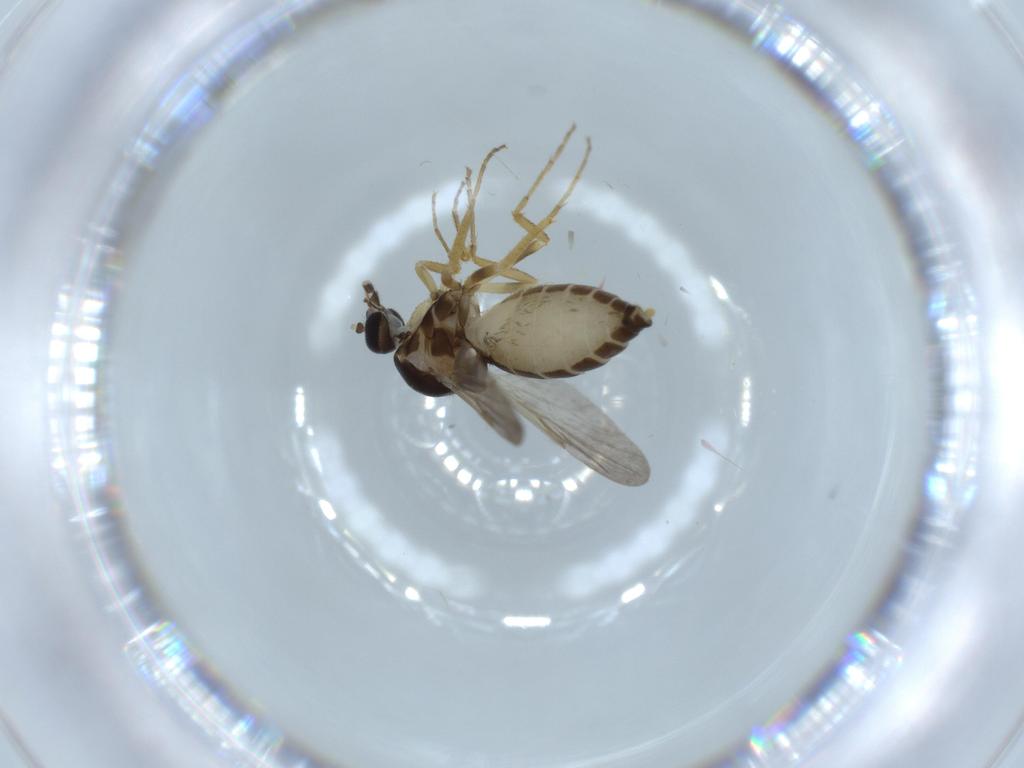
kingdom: Animalia
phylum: Arthropoda
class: Insecta
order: Diptera
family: Ceratopogonidae
